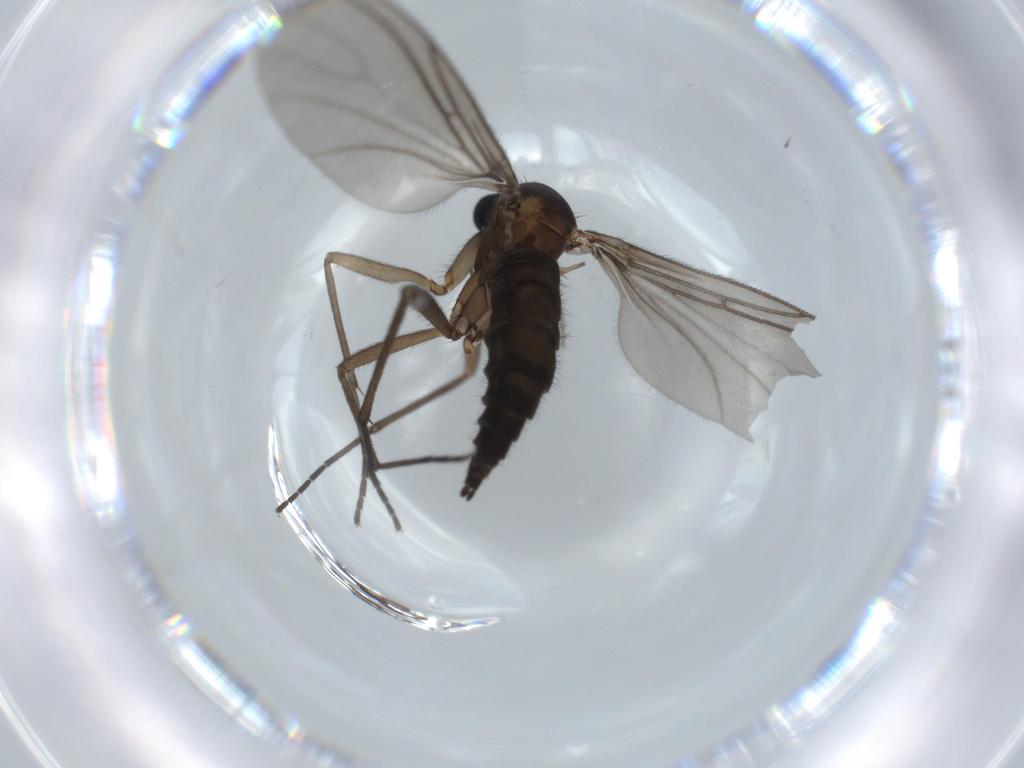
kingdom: Animalia
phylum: Arthropoda
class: Insecta
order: Diptera
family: Sciaridae
